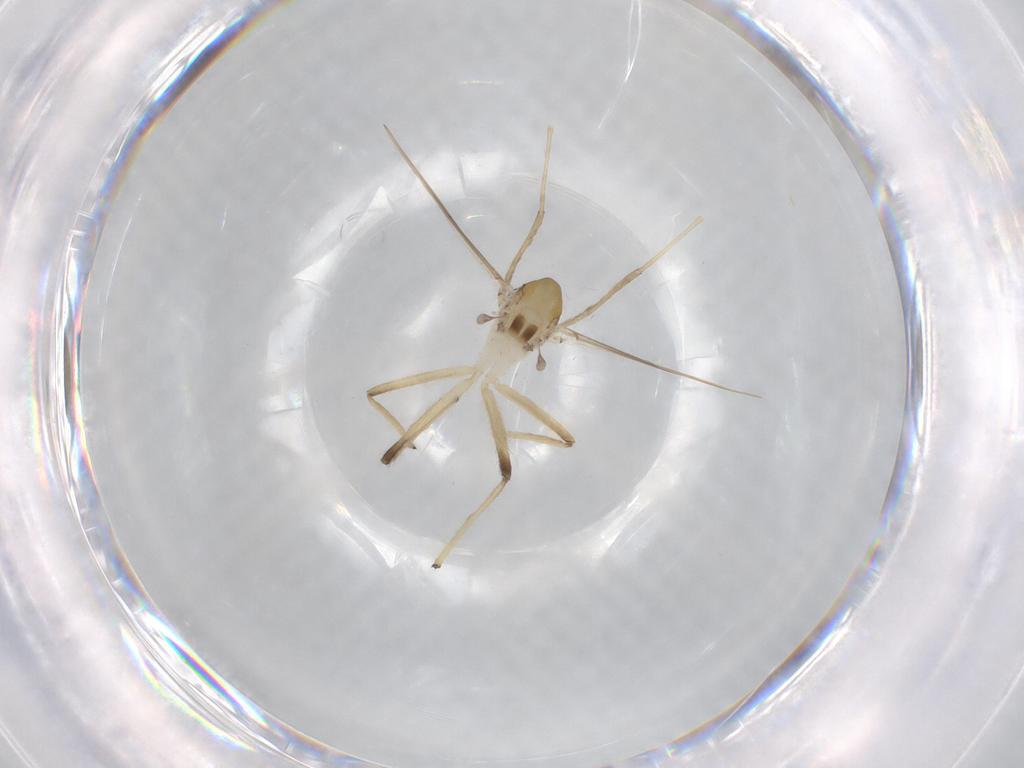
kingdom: Animalia
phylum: Arthropoda
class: Insecta
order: Diptera
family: Chironomidae
